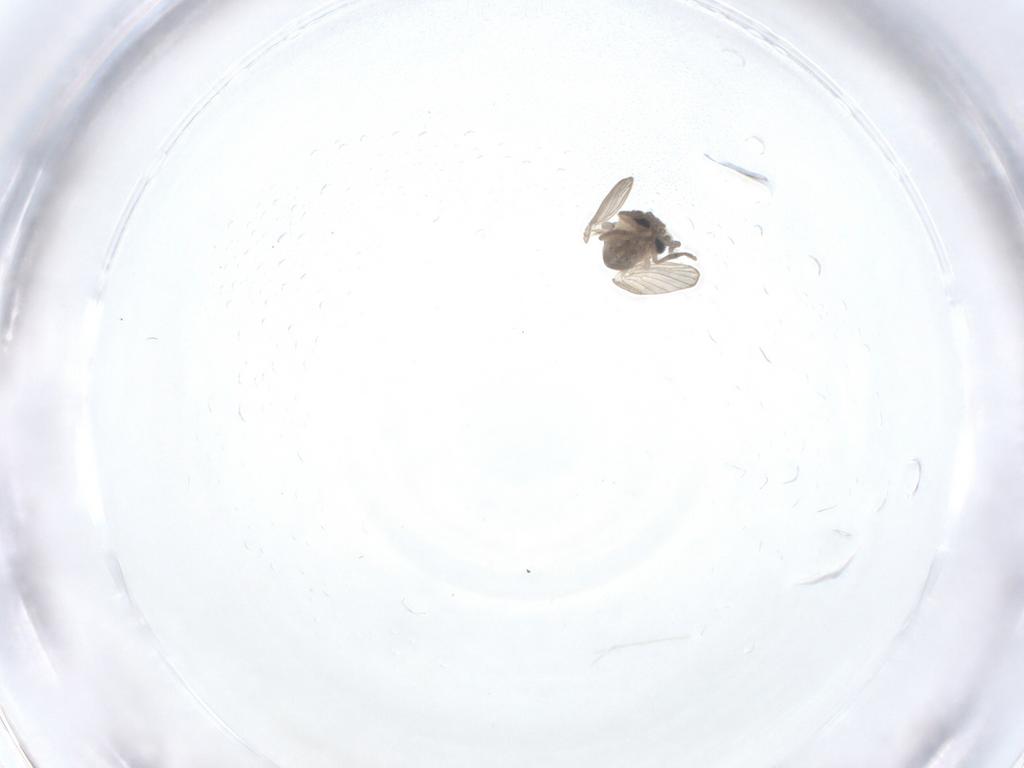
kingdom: Animalia
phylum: Arthropoda
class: Insecta
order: Diptera
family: Psychodidae
